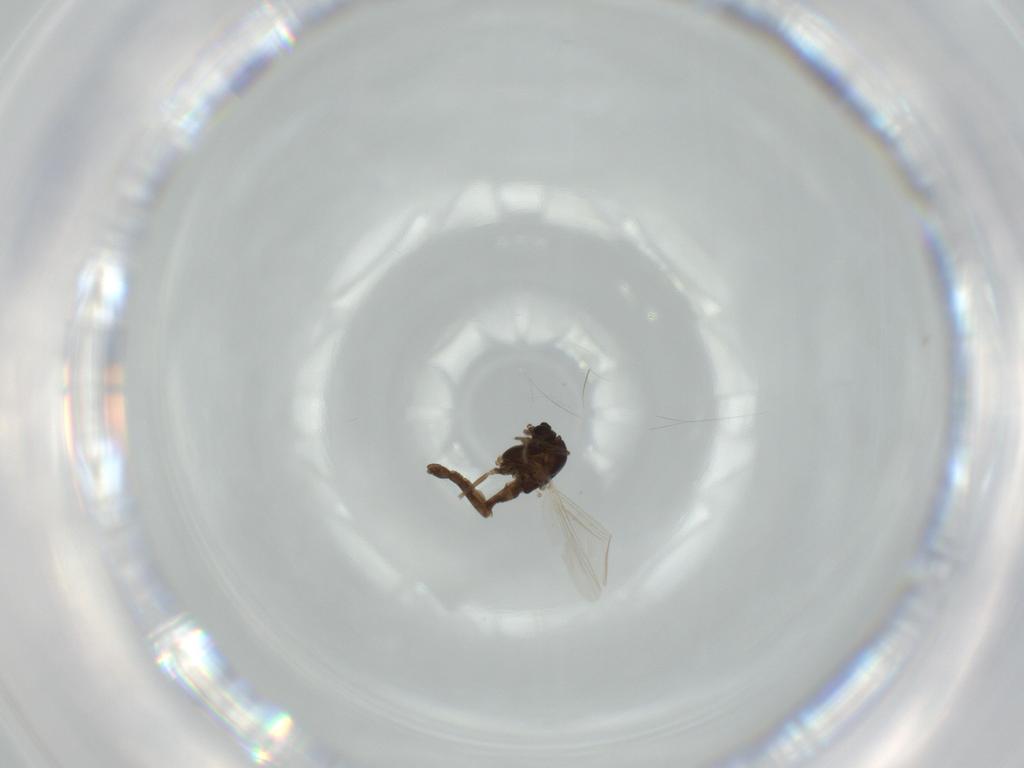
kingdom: Animalia
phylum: Arthropoda
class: Insecta
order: Diptera
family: Chironomidae
